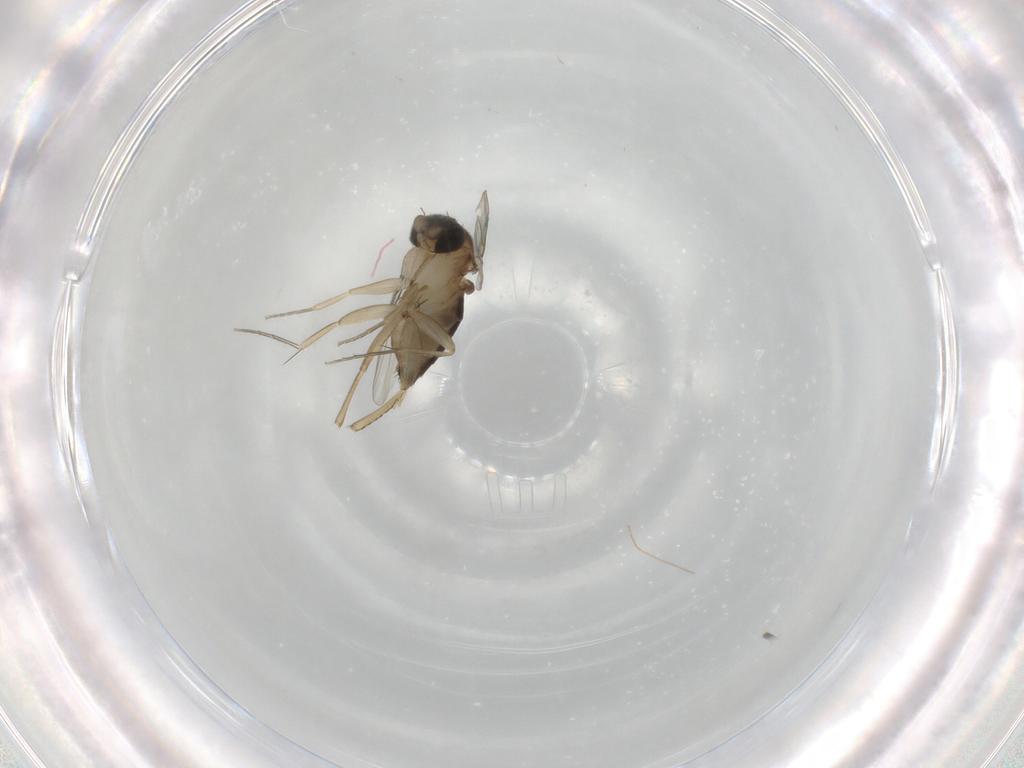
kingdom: Animalia
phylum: Arthropoda
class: Insecta
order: Diptera
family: Phoridae
